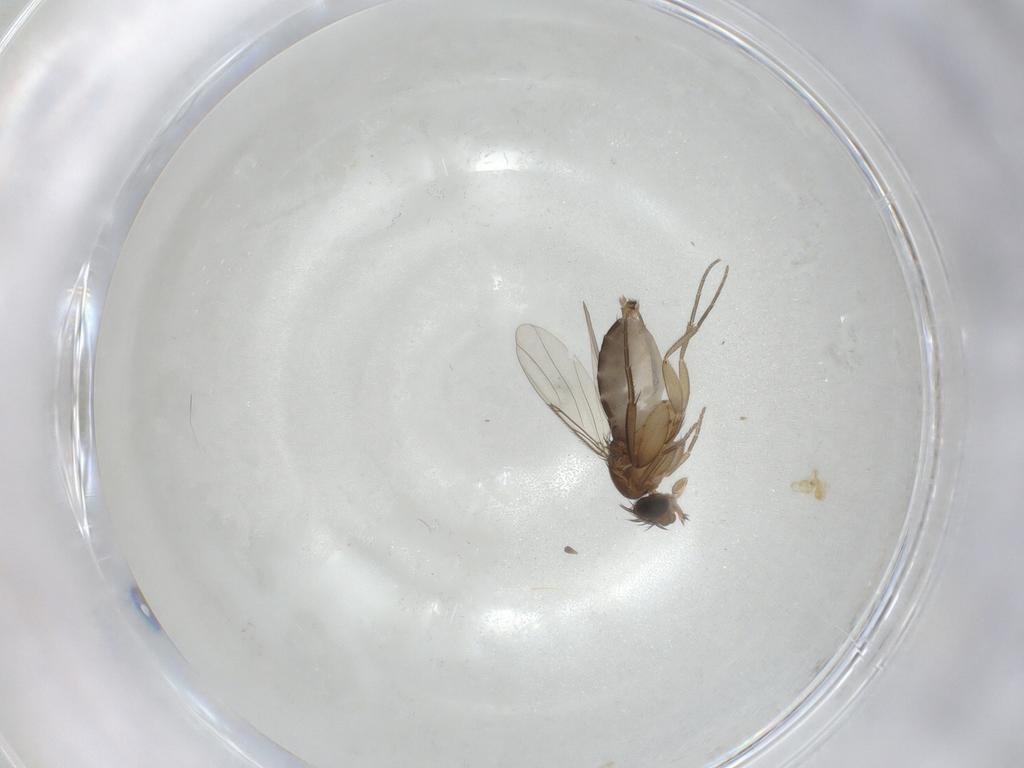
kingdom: Animalia
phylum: Arthropoda
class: Insecta
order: Diptera
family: Phoridae
